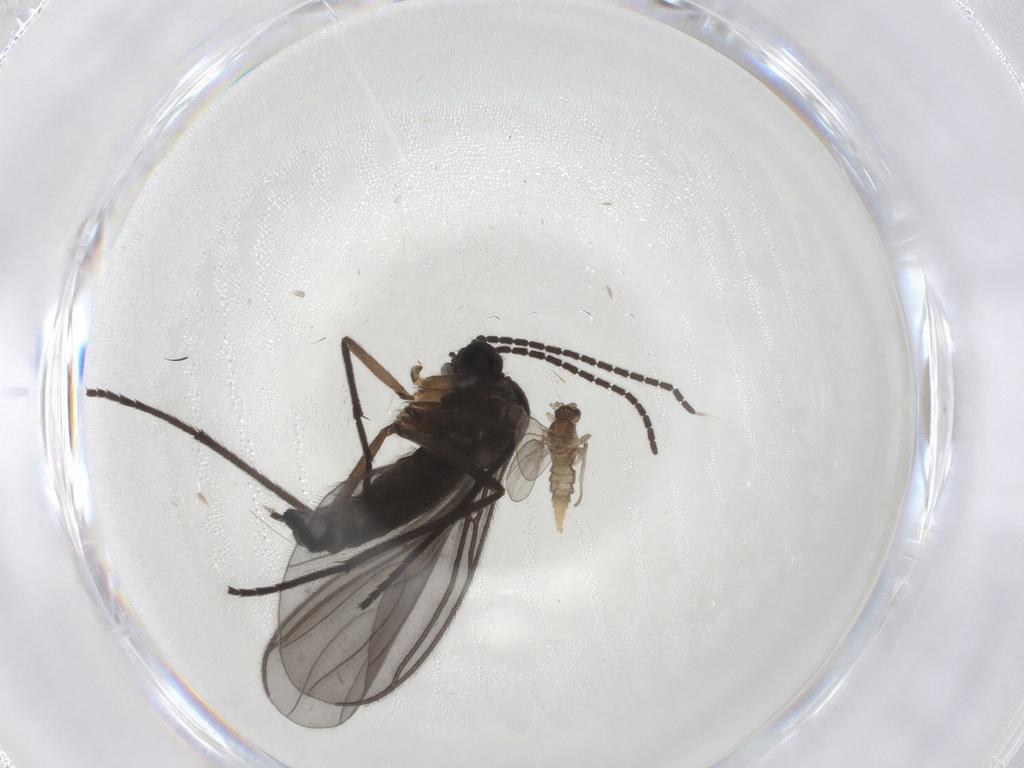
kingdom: Animalia
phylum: Arthropoda
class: Insecta
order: Diptera
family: Sciaridae
